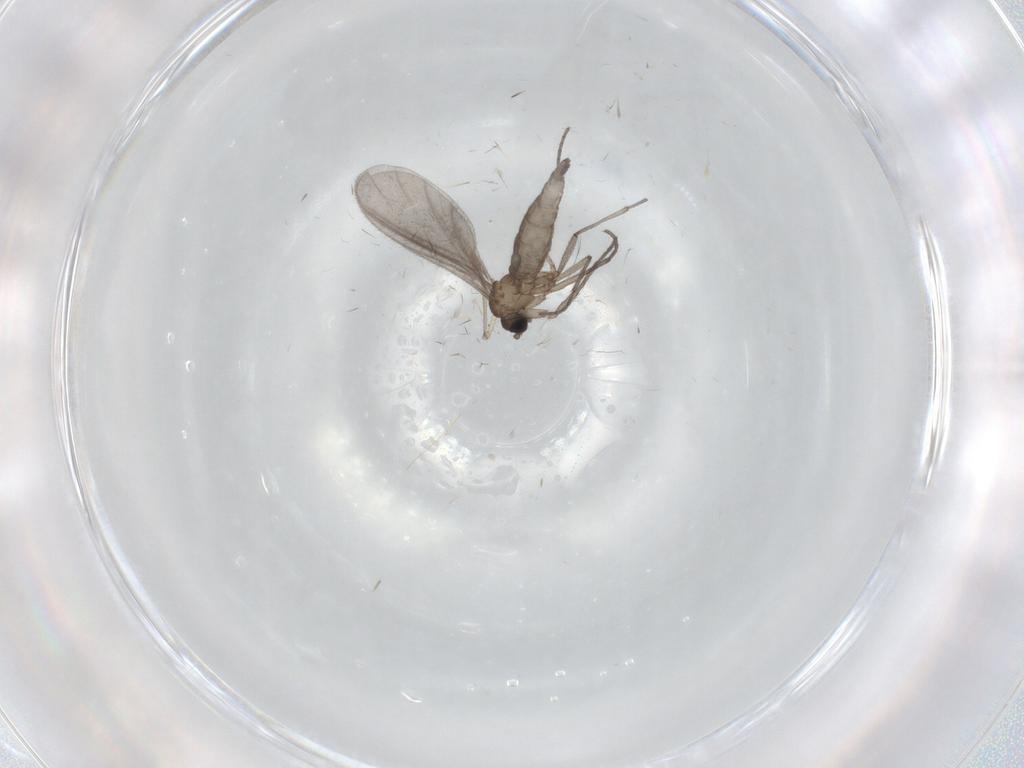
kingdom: Animalia
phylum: Arthropoda
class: Insecta
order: Diptera
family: Sciaridae
